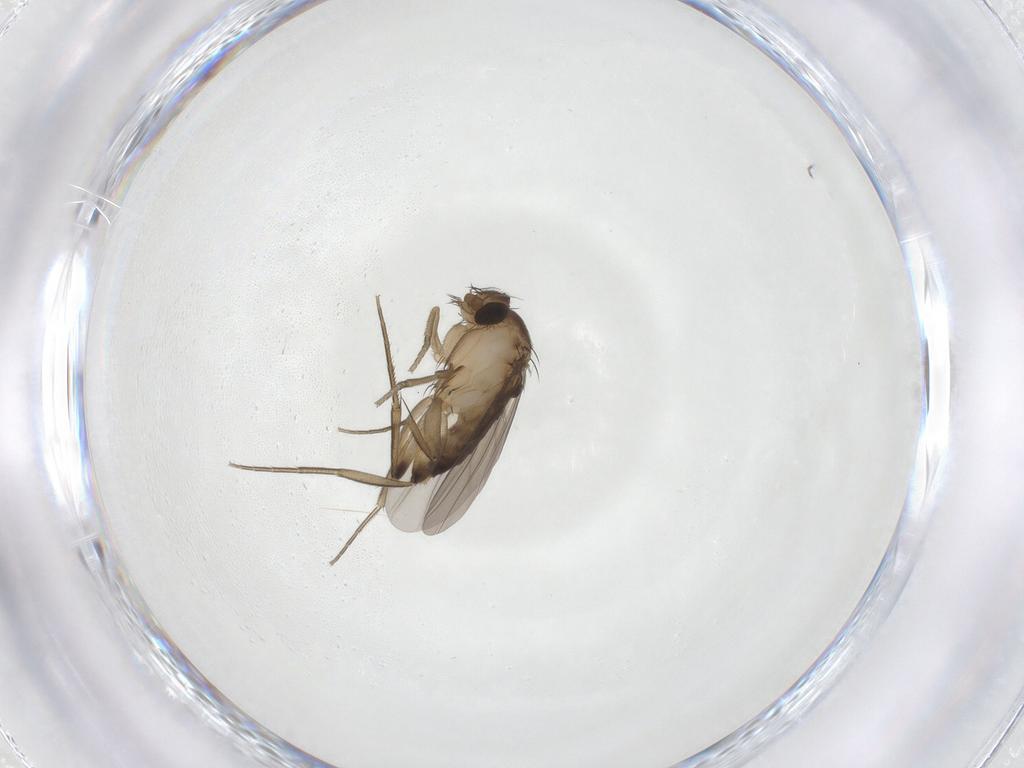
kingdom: Animalia
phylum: Arthropoda
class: Insecta
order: Diptera
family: Phoridae
